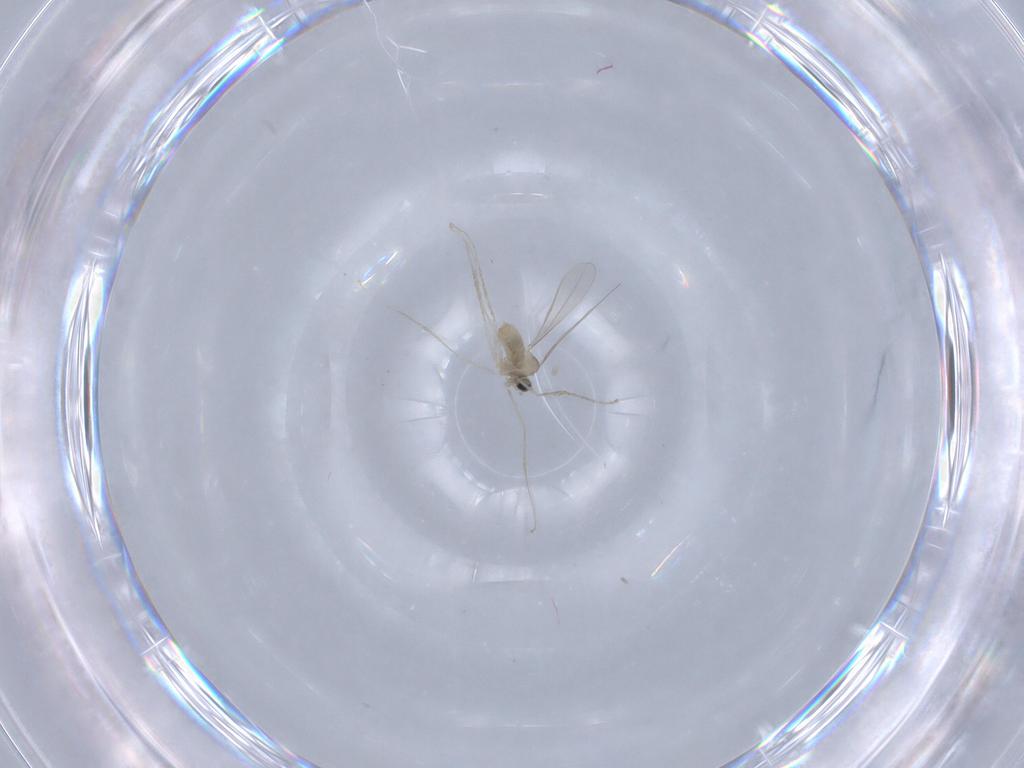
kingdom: Animalia
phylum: Arthropoda
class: Insecta
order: Diptera
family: Cecidomyiidae
